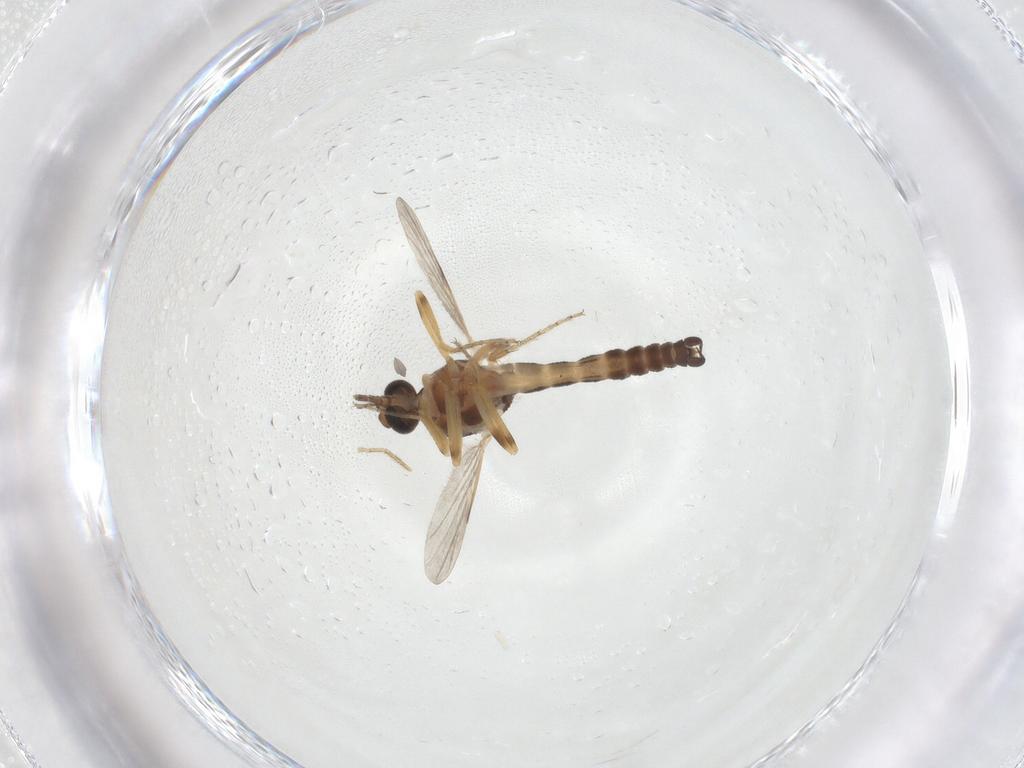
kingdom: Animalia
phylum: Arthropoda
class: Insecta
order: Diptera
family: Ceratopogonidae
